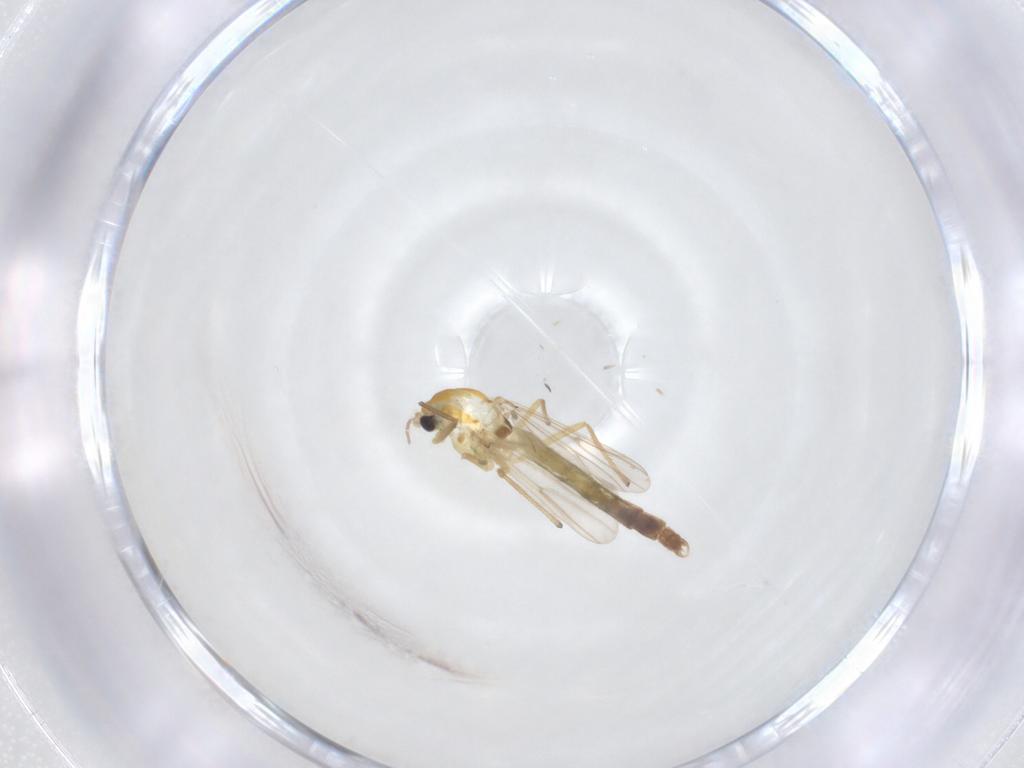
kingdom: Animalia
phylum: Arthropoda
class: Insecta
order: Diptera
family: Chironomidae
